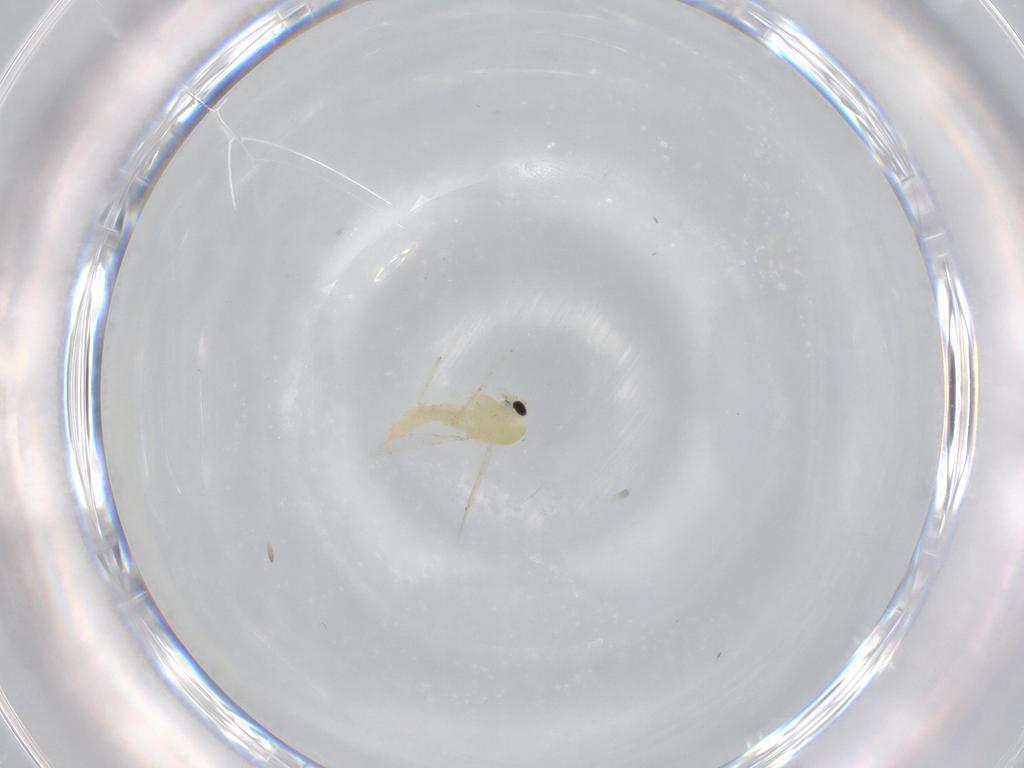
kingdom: Animalia
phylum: Arthropoda
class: Insecta
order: Diptera
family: Chironomidae
